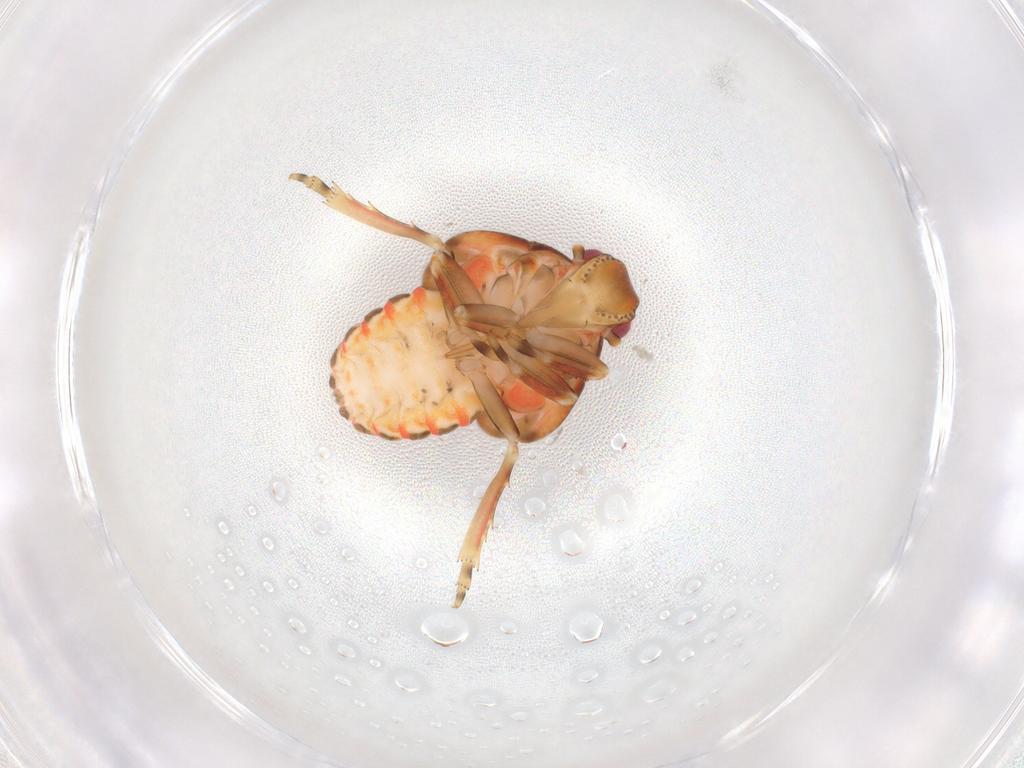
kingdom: Animalia
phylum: Arthropoda
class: Insecta
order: Hemiptera
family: Flatidae
